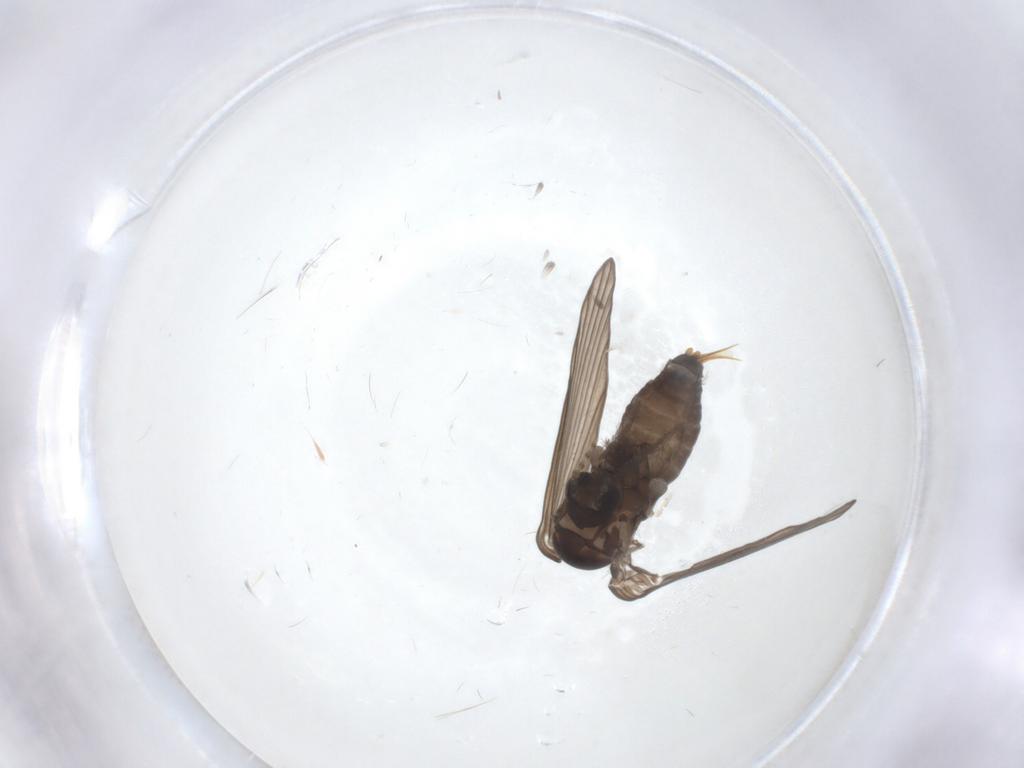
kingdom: Animalia
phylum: Arthropoda
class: Insecta
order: Diptera
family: Psychodidae
